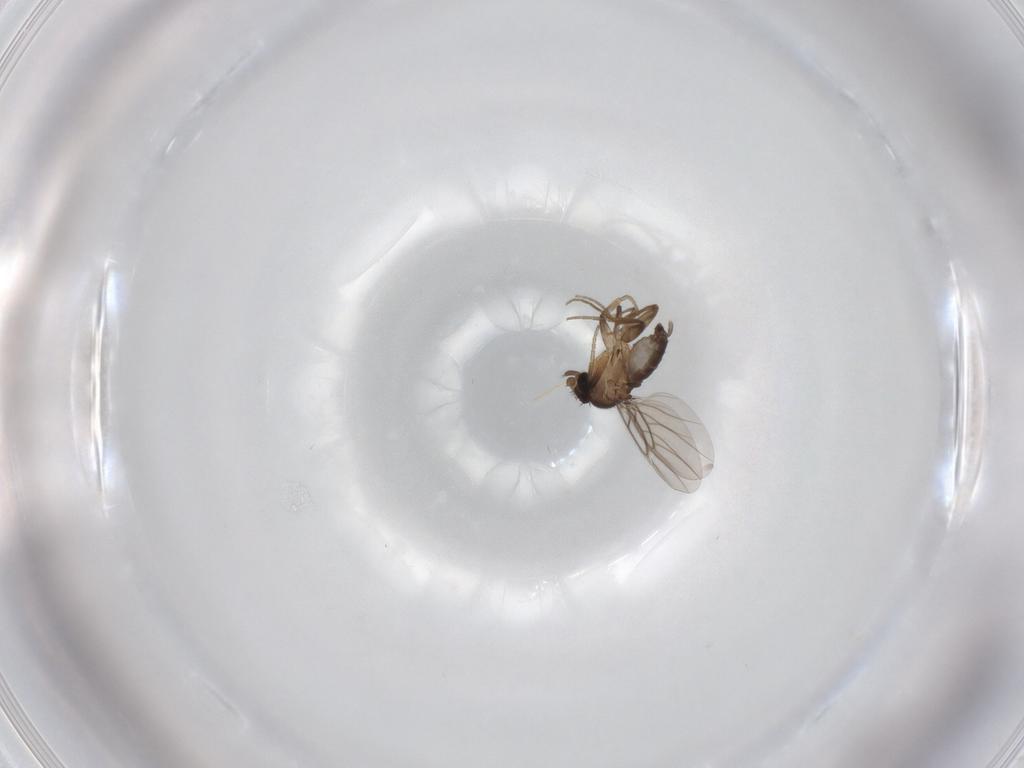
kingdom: Animalia
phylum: Arthropoda
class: Insecta
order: Diptera
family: Phoridae
